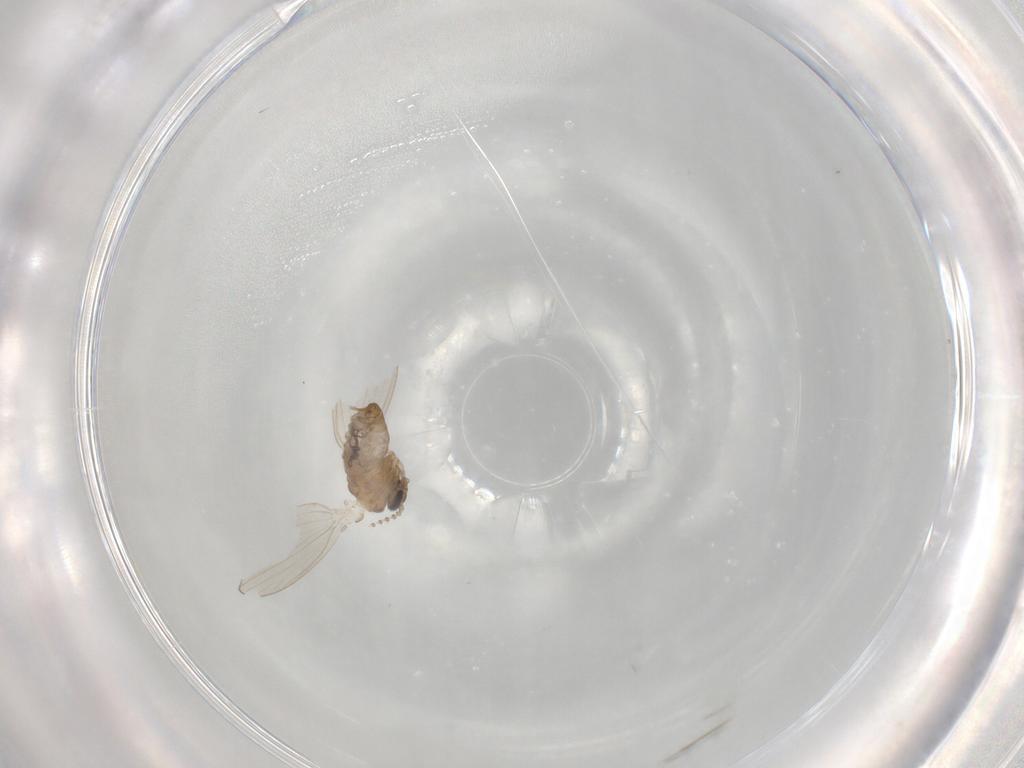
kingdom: Animalia
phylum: Arthropoda
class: Insecta
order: Diptera
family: Psychodidae
